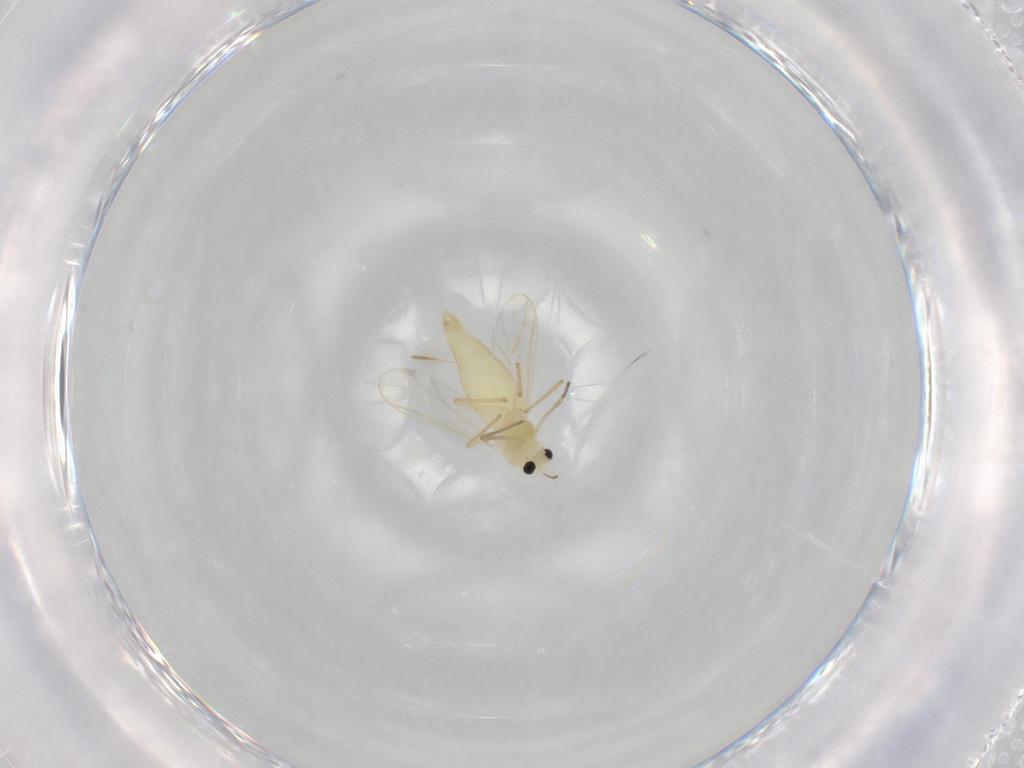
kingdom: Animalia
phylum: Arthropoda
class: Insecta
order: Diptera
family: Chironomidae
